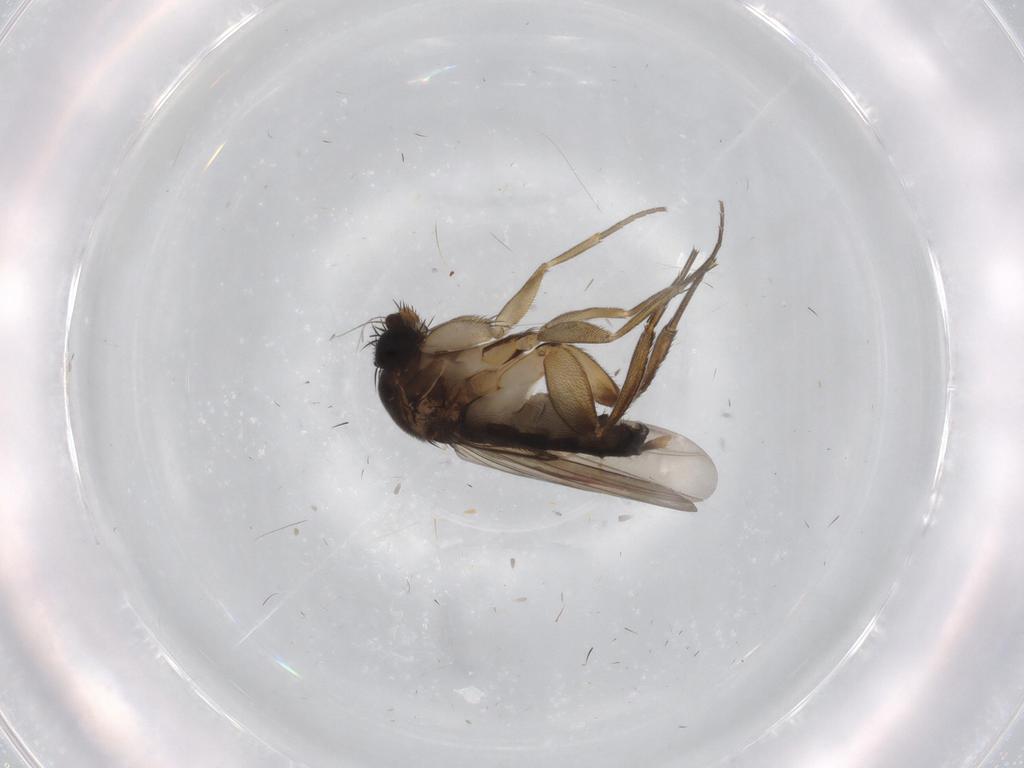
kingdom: Animalia
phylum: Arthropoda
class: Insecta
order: Diptera
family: Phoridae
